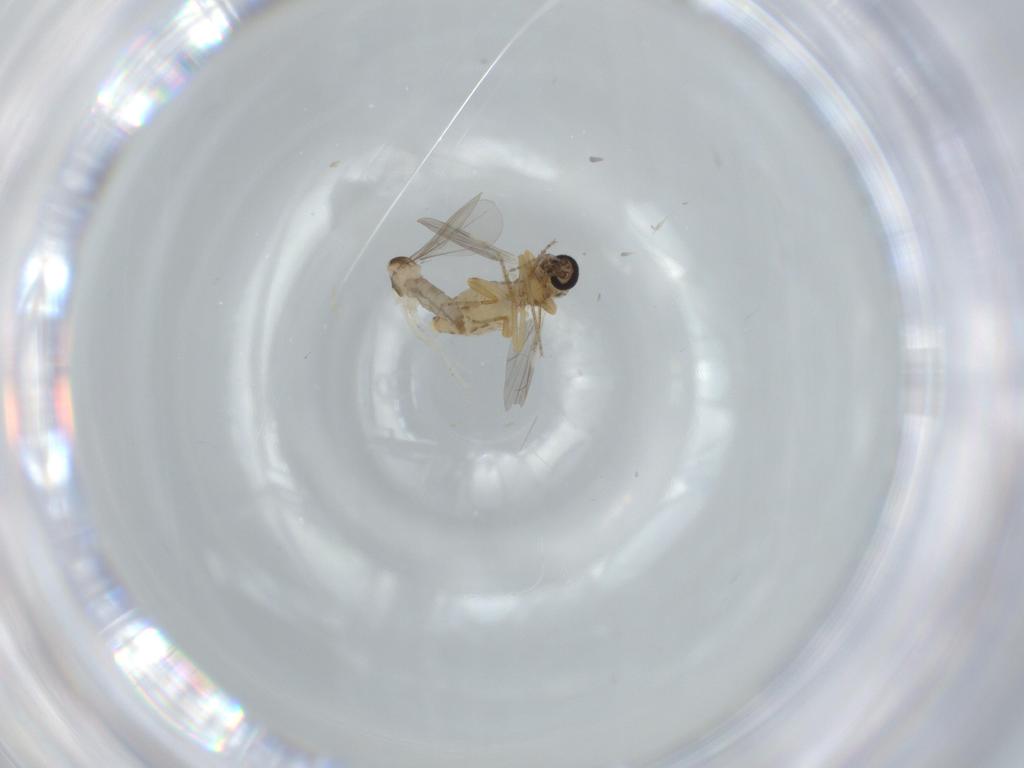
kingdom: Animalia
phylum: Arthropoda
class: Insecta
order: Diptera
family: Ceratopogonidae
